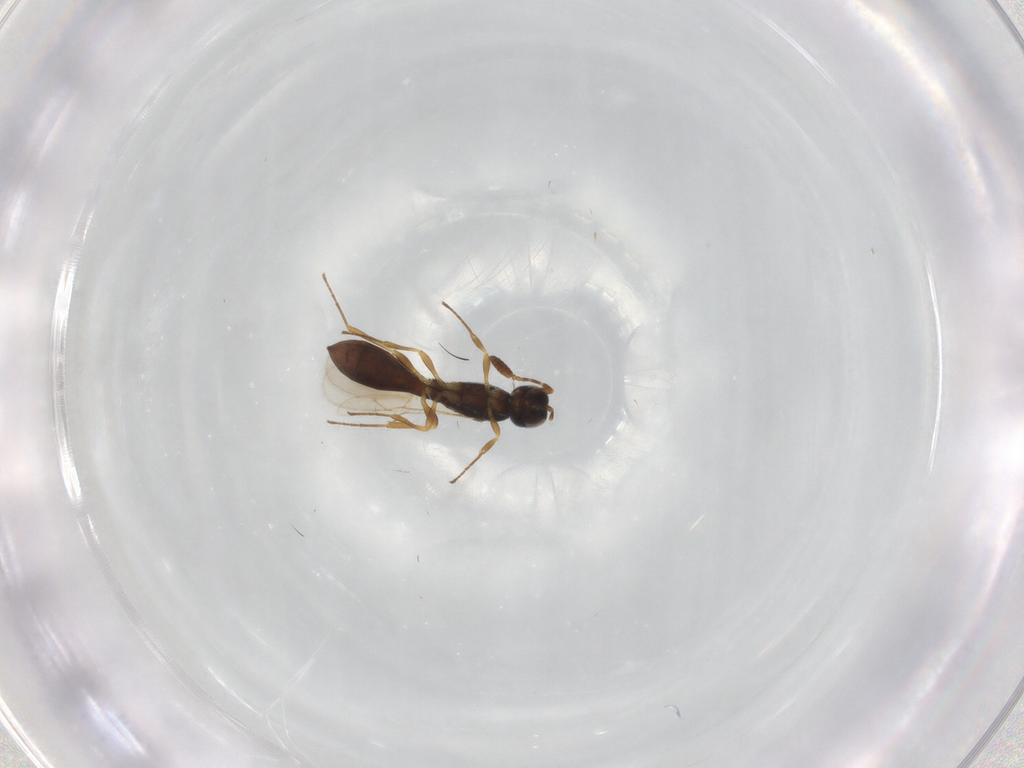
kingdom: Animalia
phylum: Arthropoda
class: Insecta
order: Hymenoptera
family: Scelionidae
